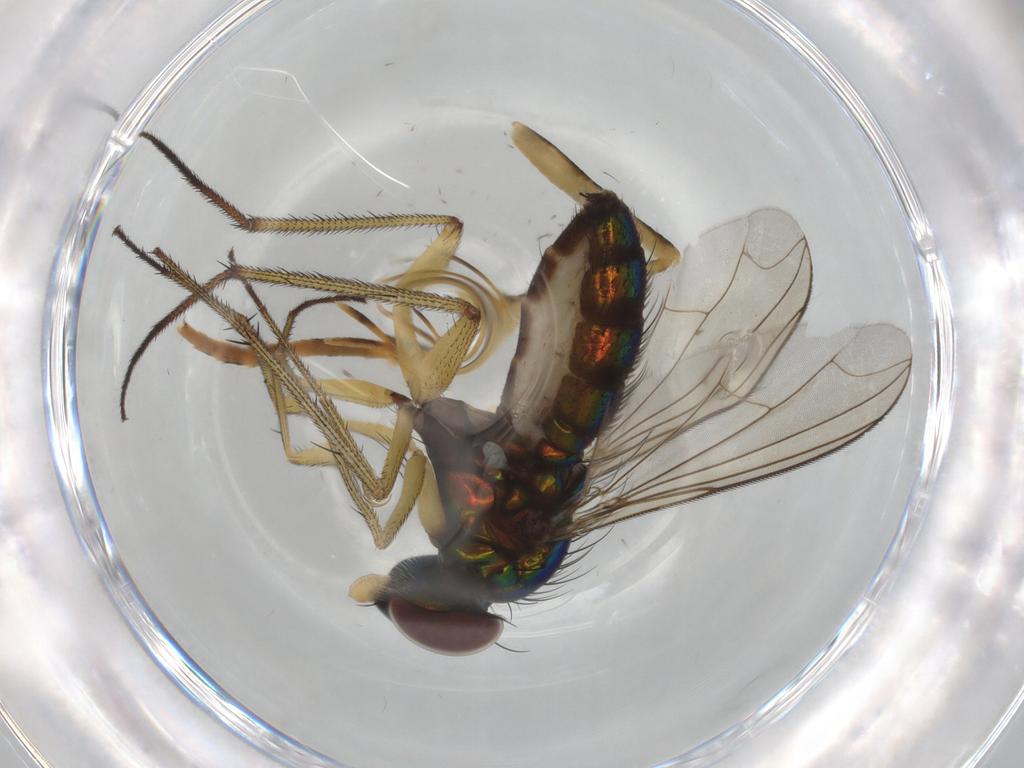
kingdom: Animalia
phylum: Arthropoda
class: Insecta
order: Diptera
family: Dolichopodidae
